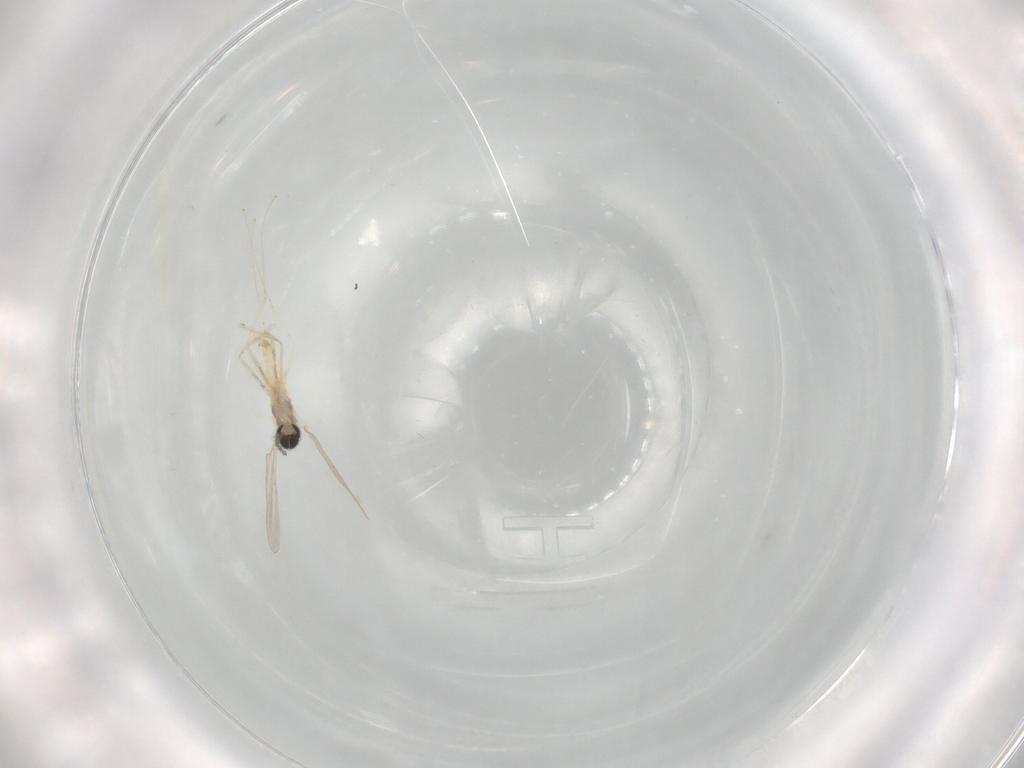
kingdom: Animalia
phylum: Arthropoda
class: Insecta
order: Diptera
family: Cecidomyiidae
